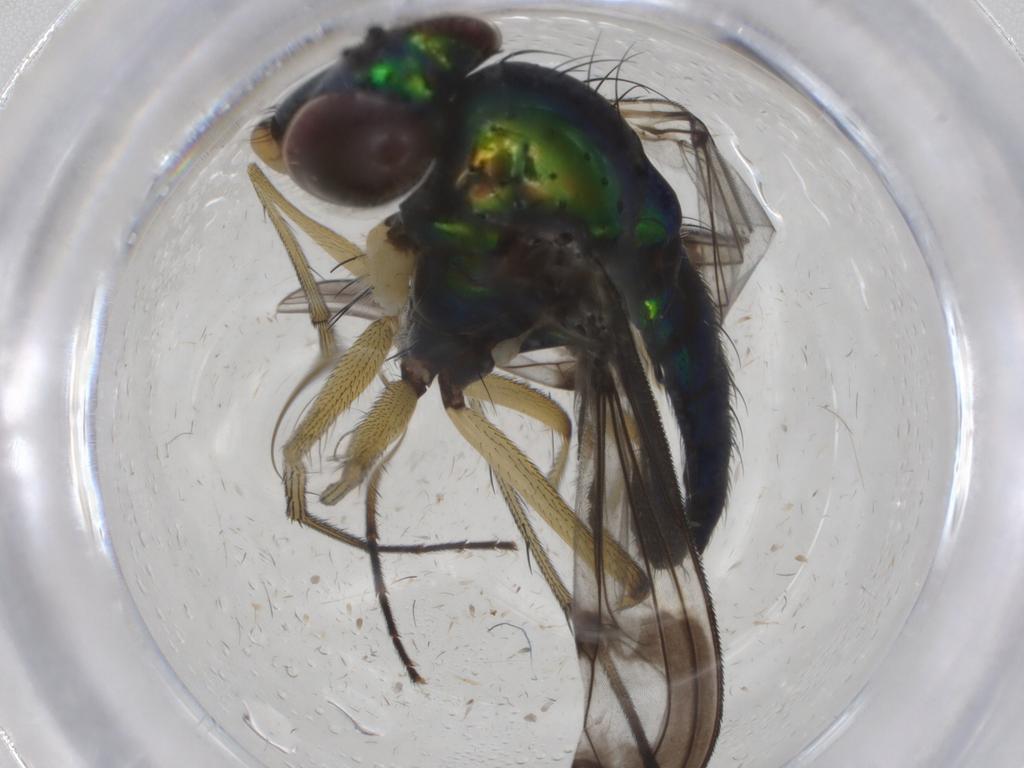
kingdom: Animalia
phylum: Arthropoda
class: Insecta
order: Diptera
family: Dolichopodidae
